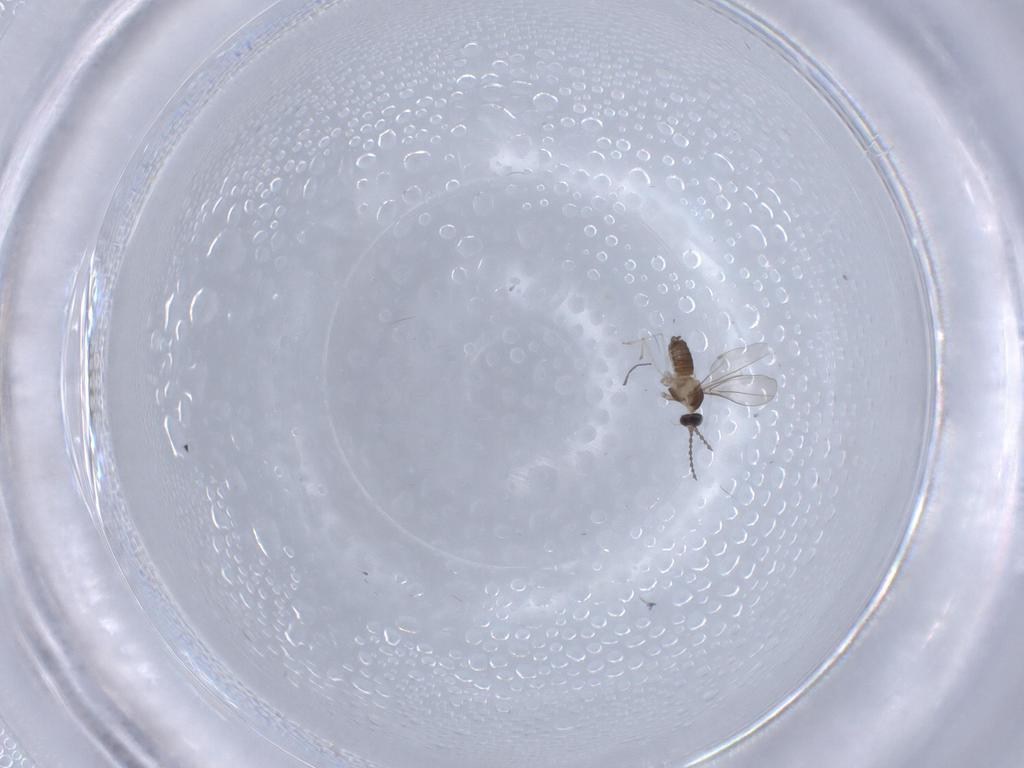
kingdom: Animalia
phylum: Arthropoda
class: Insecta
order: Diptera
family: Cecidomyiidae
